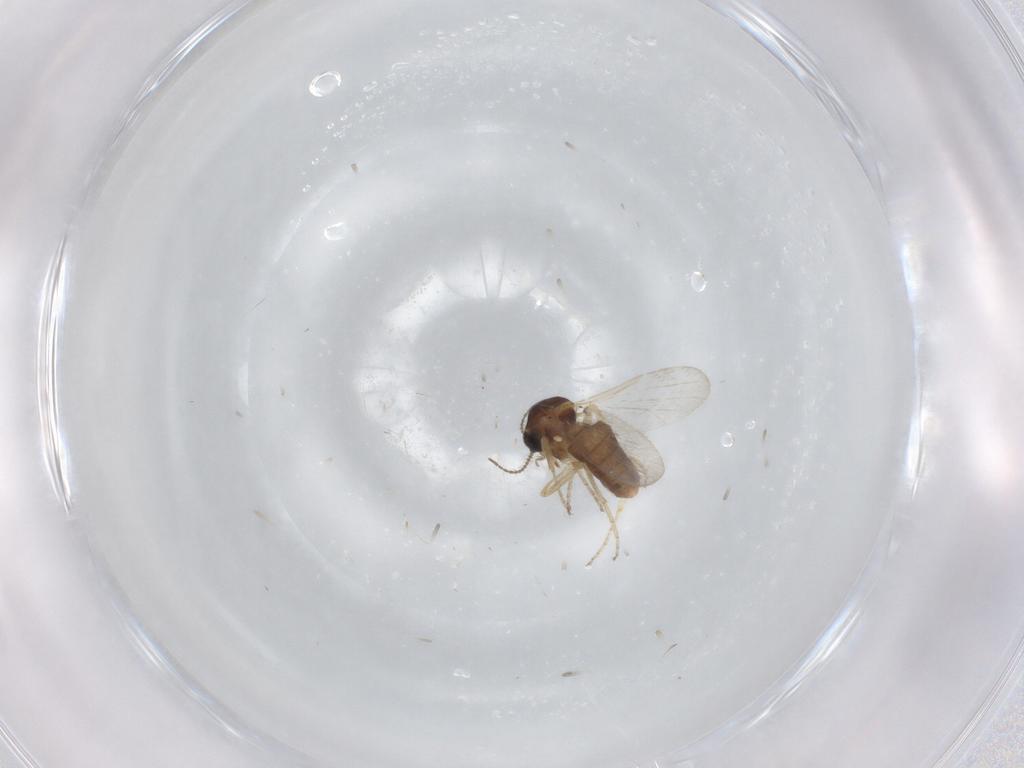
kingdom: Animalia
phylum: Arthropoda
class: Insecta
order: Diptera
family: Ceratopogonidae
